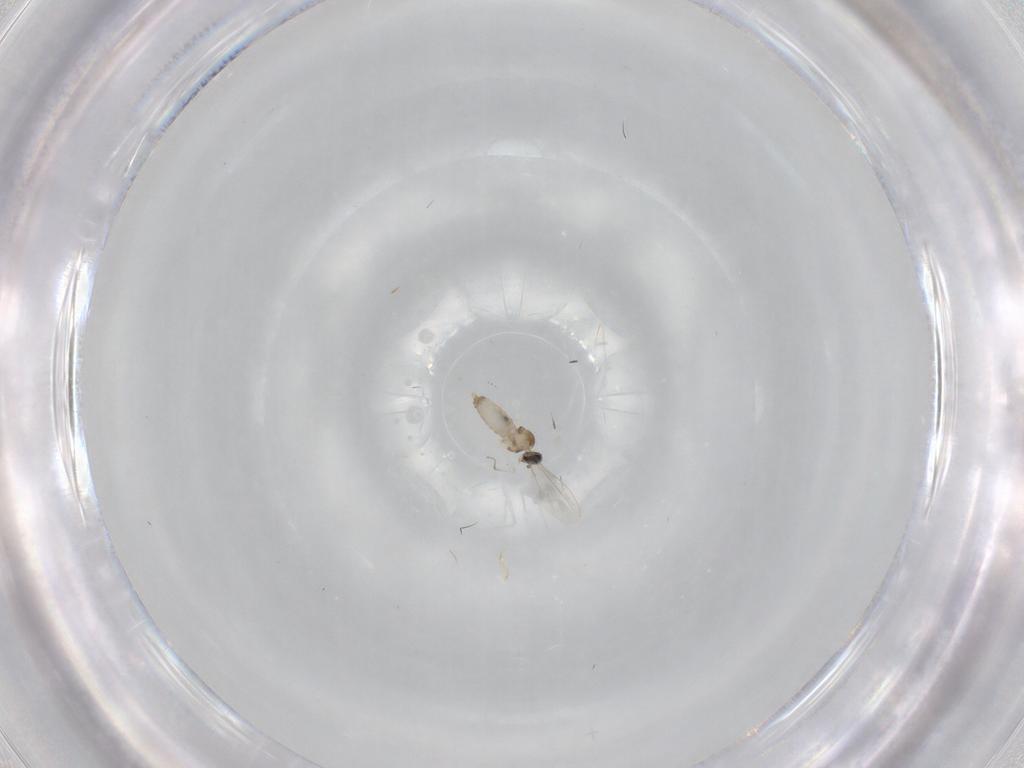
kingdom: Animalia
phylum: Arthropoda
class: Insecta
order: Diptera
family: Cecidomyiidae
